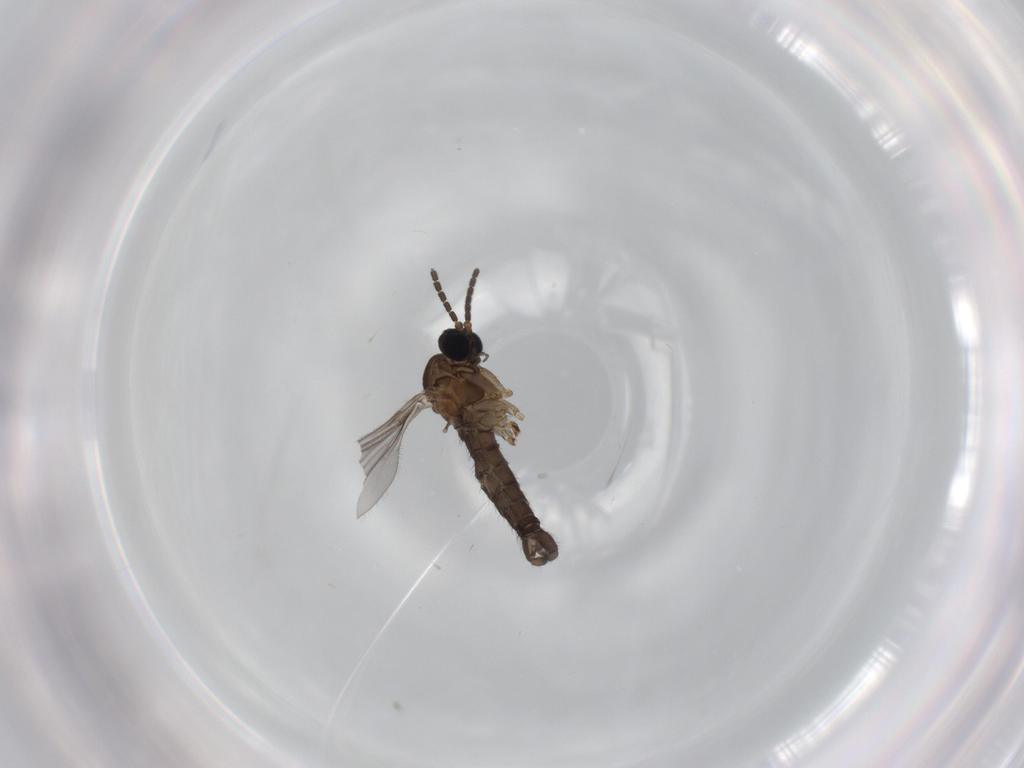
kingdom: Animalia
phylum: Arthropoda
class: Insecta
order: Diptera
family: Sciaridae
